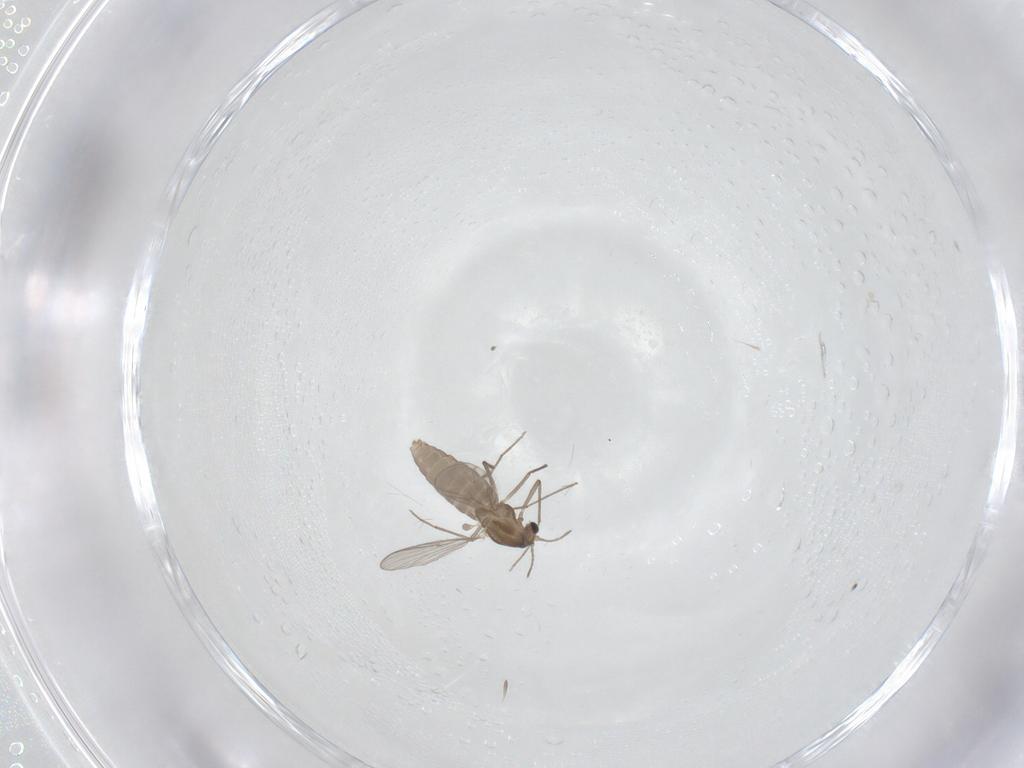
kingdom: Animalia
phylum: Arthropoda
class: Insecta
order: Diptera
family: Chironomidae
